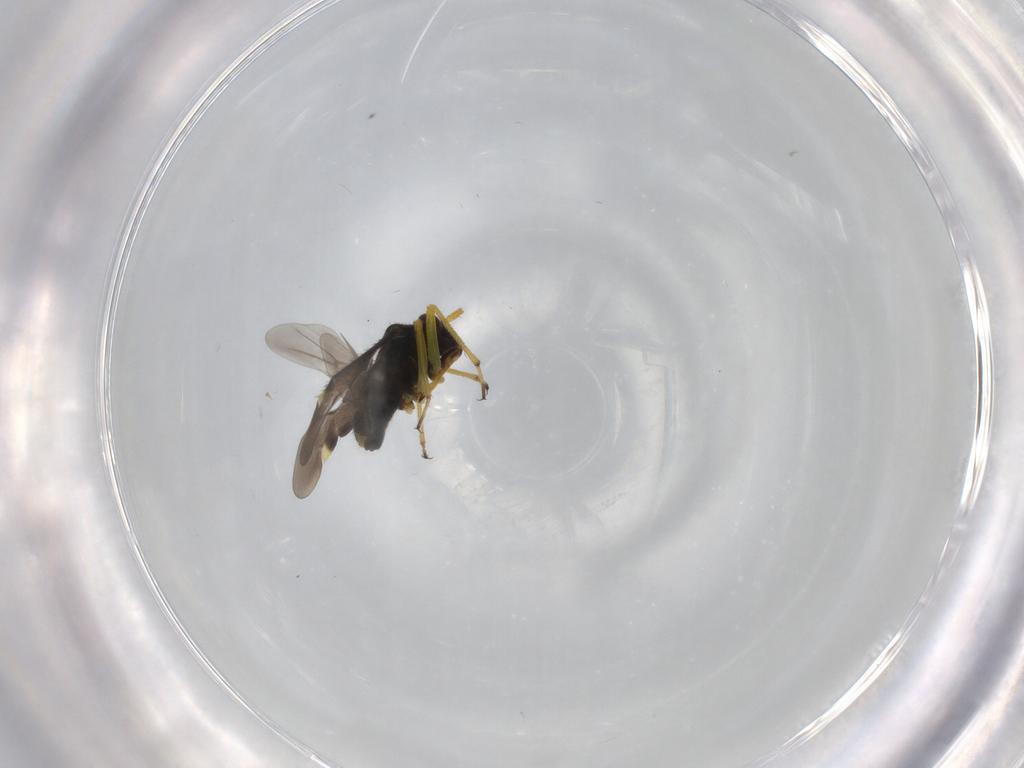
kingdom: Animalia
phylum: Arthropoda
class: Insecta
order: Hemiptera
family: Miridae
